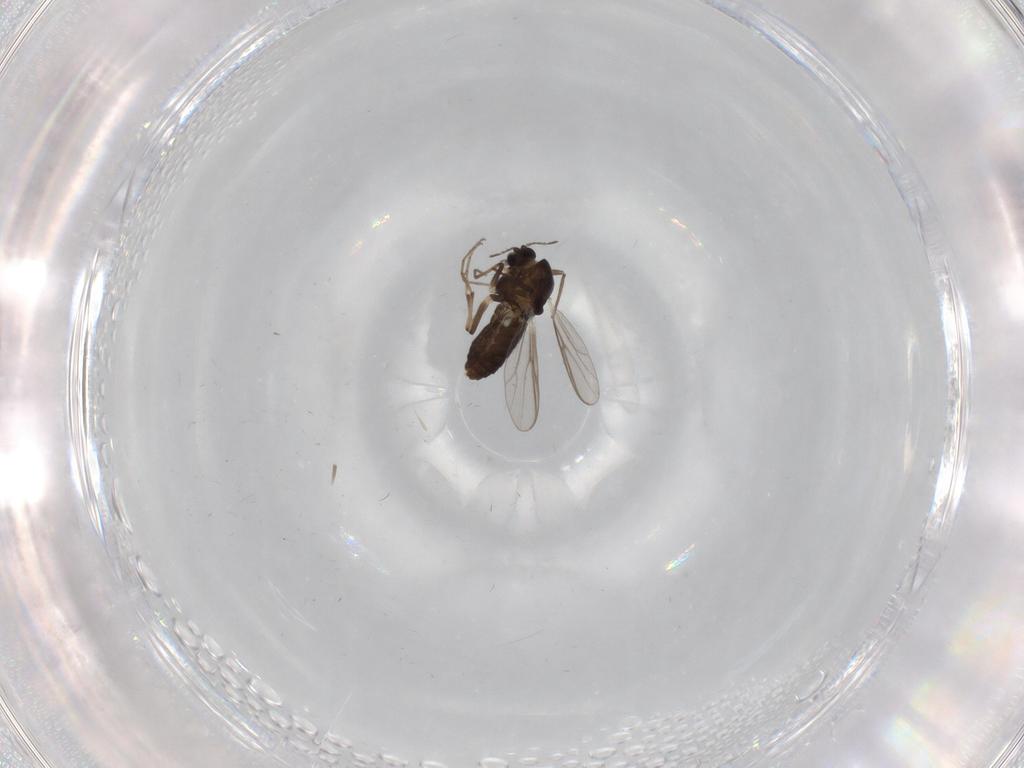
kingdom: Animalia
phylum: Arthropoda
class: Insecta
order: Diptera
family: Chironomidae
